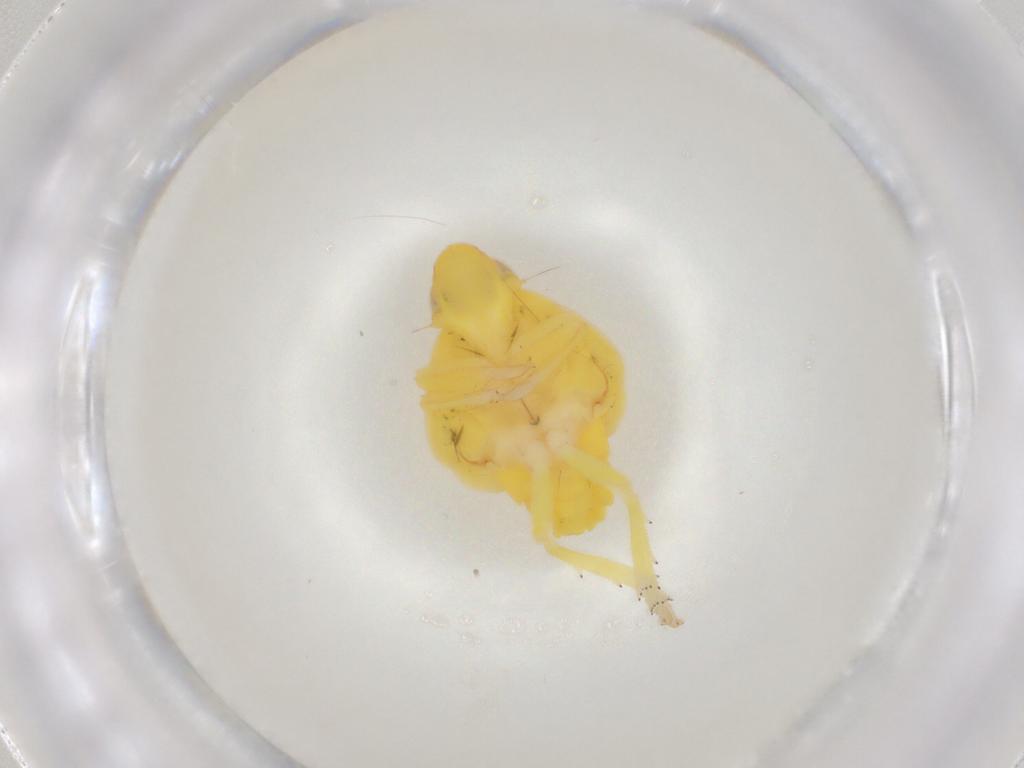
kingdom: Animalia
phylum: Arthropoda
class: Insecta
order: Hemiptera
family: Tropiduchidae
